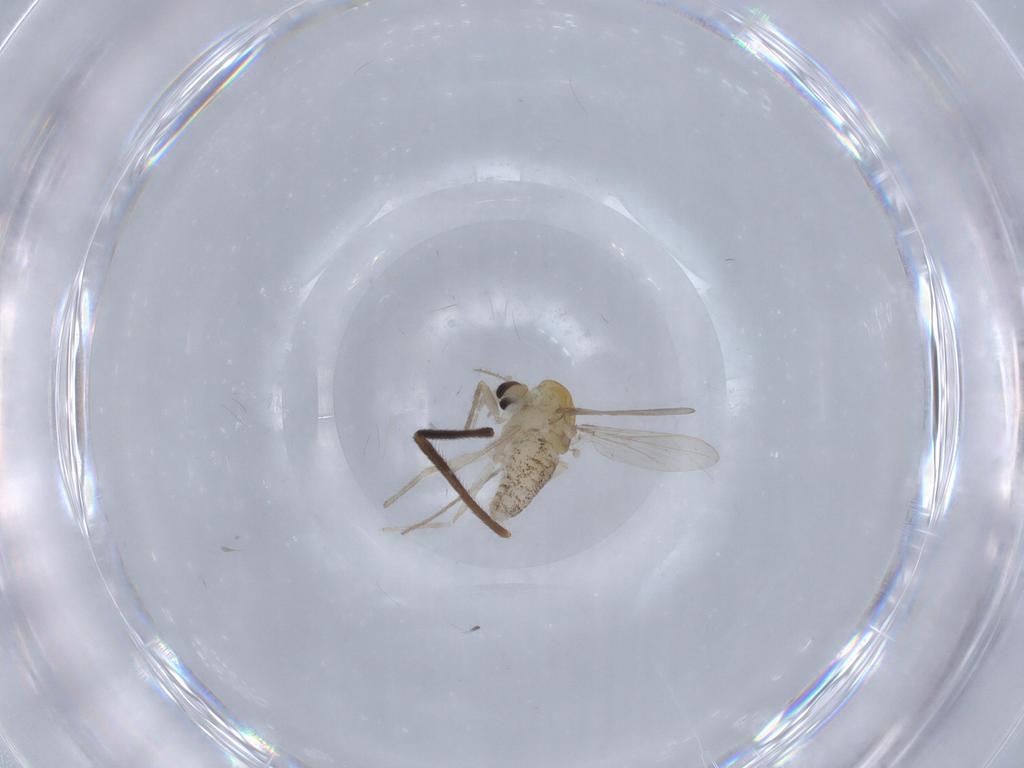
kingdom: Animalia
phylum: Arthropoda
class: Insecta
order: Diptera
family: Chironomidae
